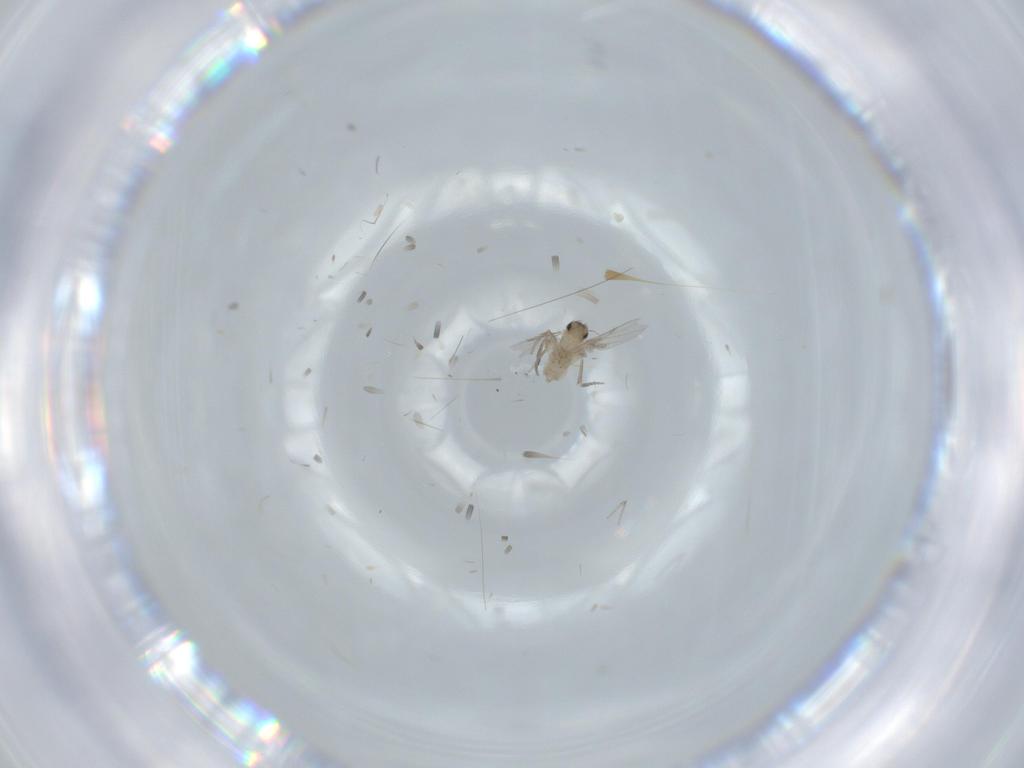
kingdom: Animalia
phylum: Arthropoda
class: Insecta
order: Diptera
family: Phoridae
